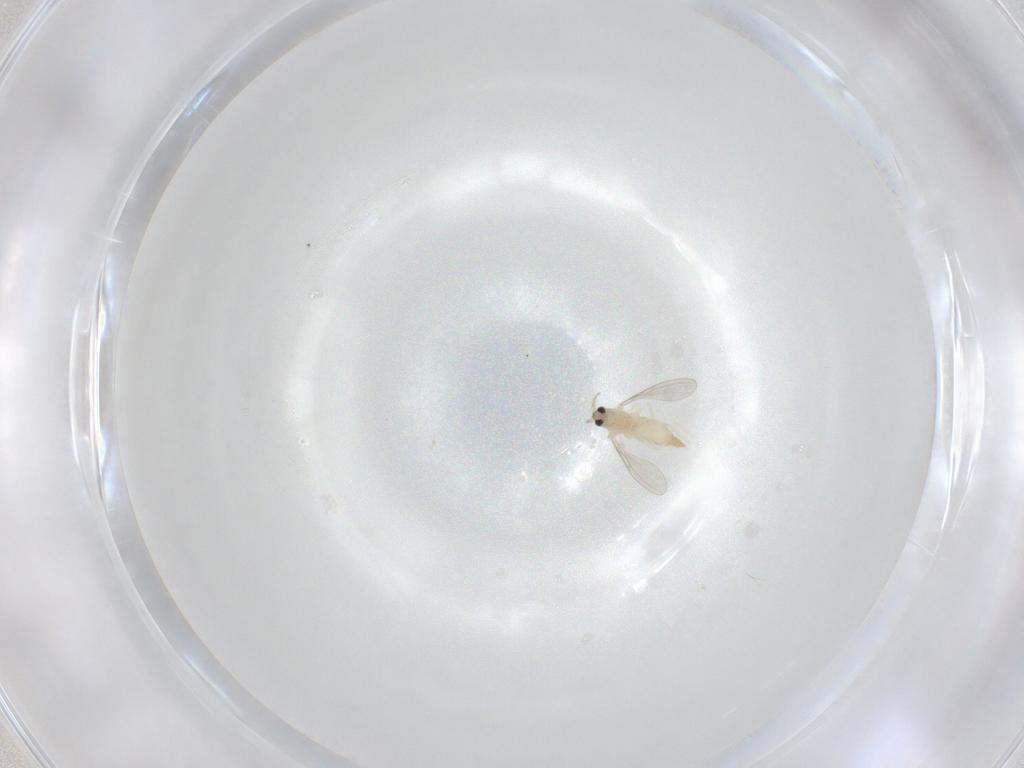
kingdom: Animalia
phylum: Arthropoda
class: Insecta
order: Diptera
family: Cecidomyiidae
